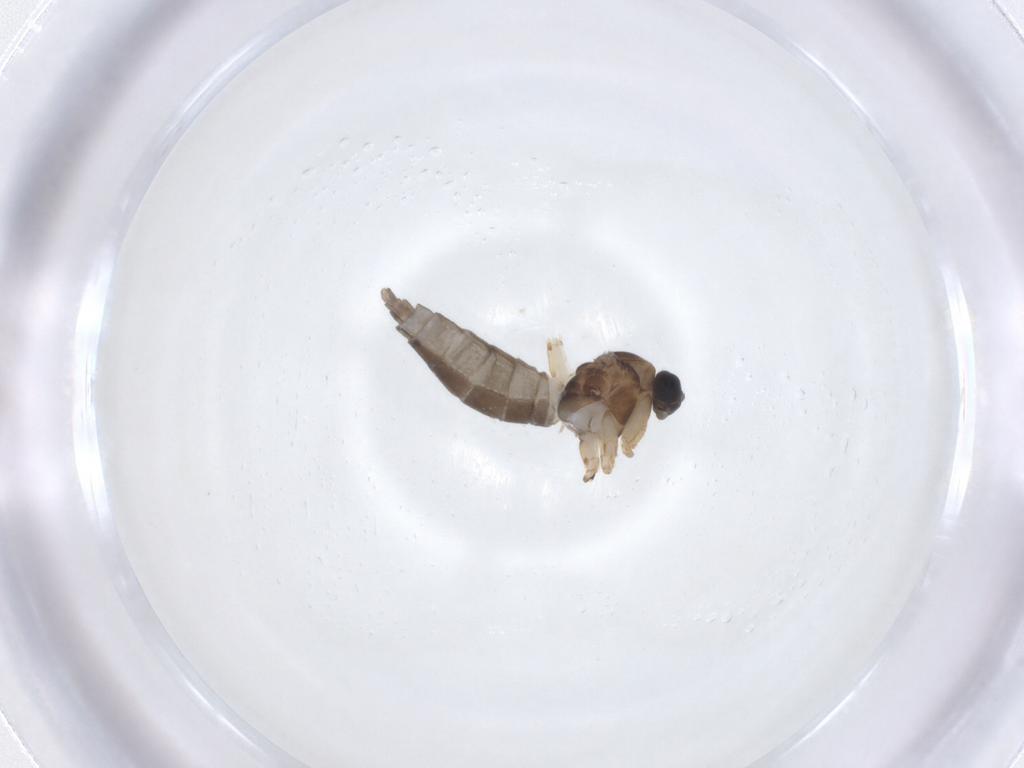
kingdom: Animalia
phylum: Arthropoda
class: Insecta
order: Diptera
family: Sciaridae
